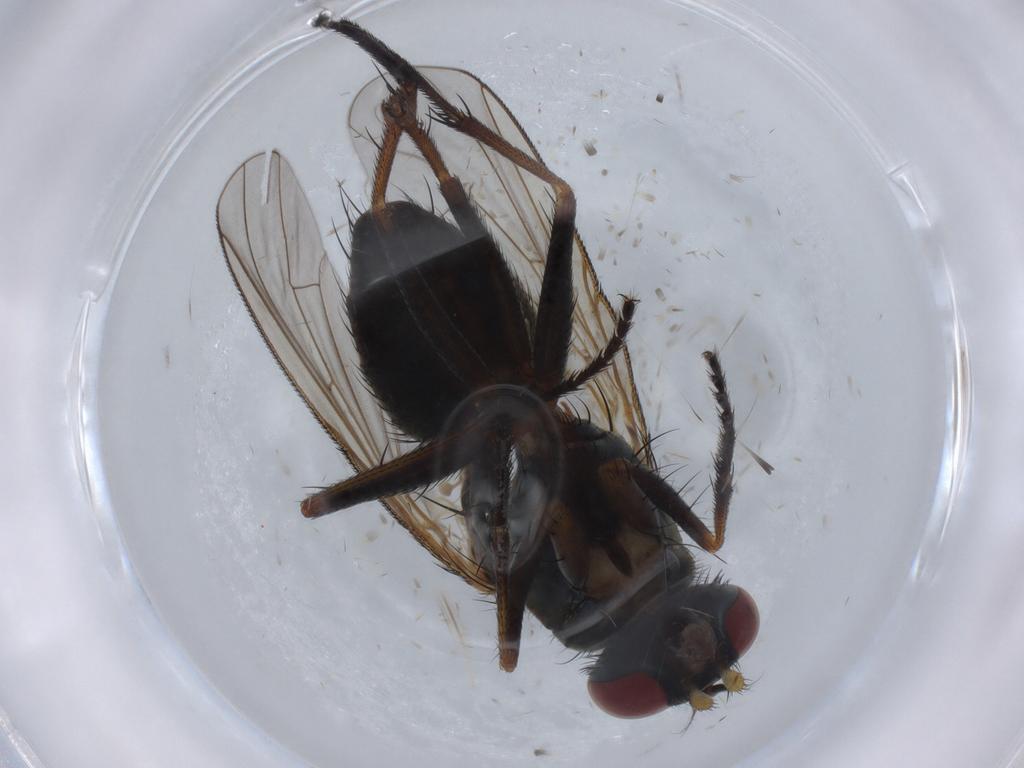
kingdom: Animalia
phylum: Arthropoda
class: Insecta
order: Diptera
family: Muscidae
